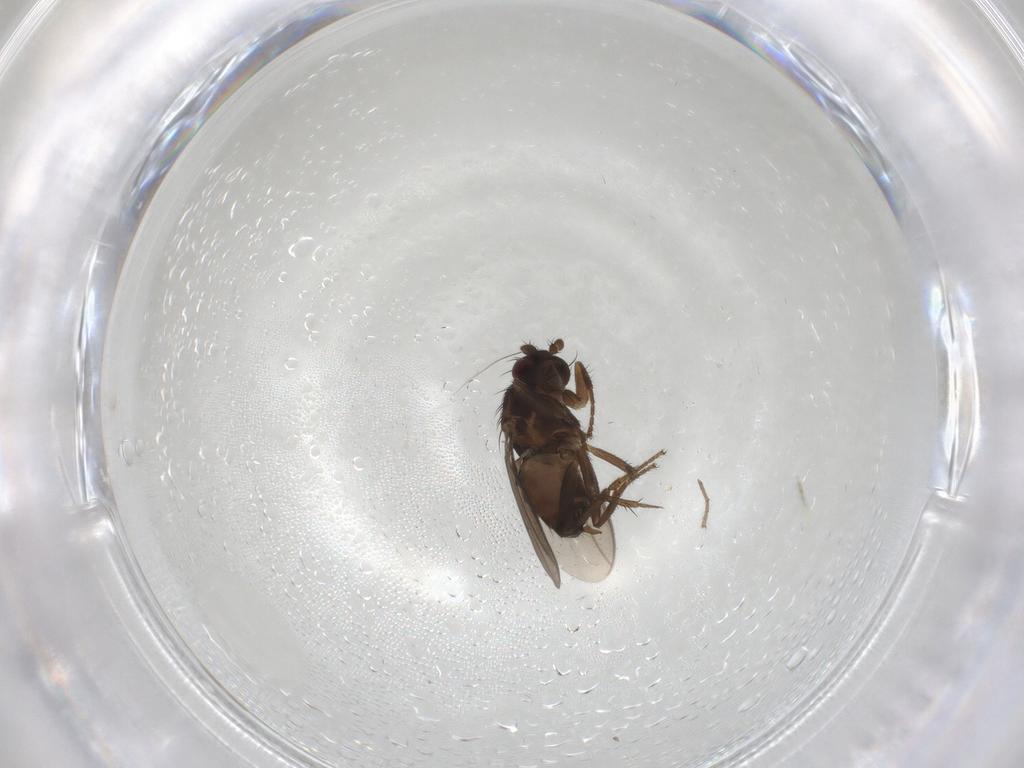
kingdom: Animalia
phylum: Arthropoda
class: Insecta
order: Diptera
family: Sphaeroceridae
